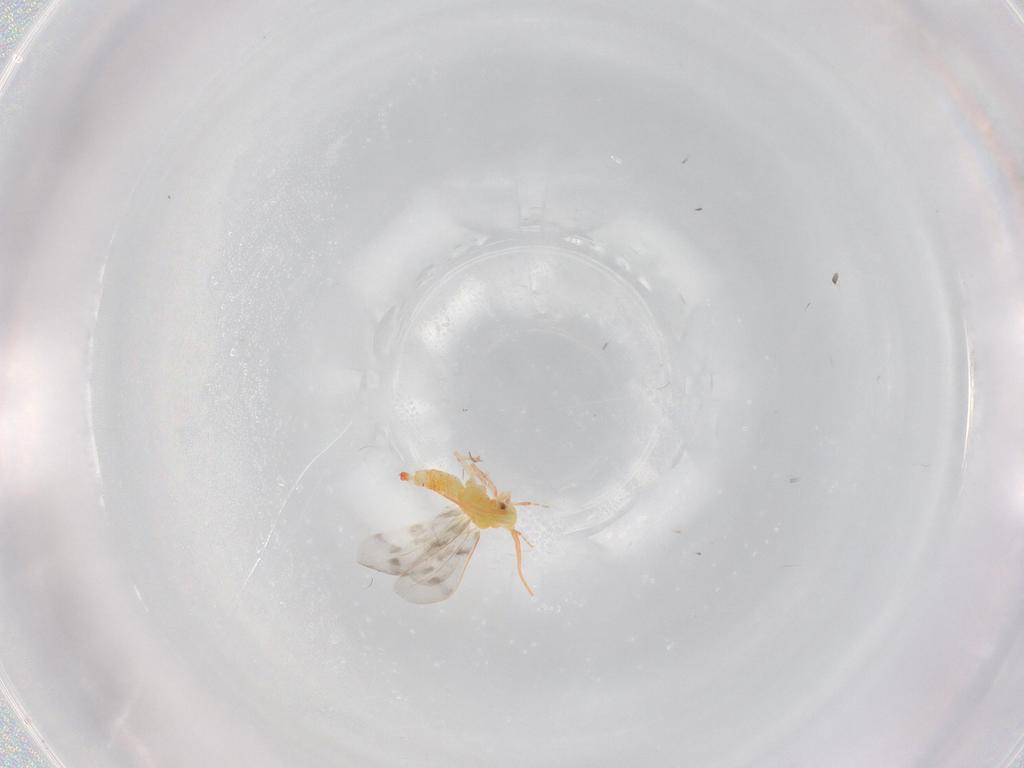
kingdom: Animalia
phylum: Arthropoda
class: Insecta
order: Hemiptera
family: Aleyrodidae
